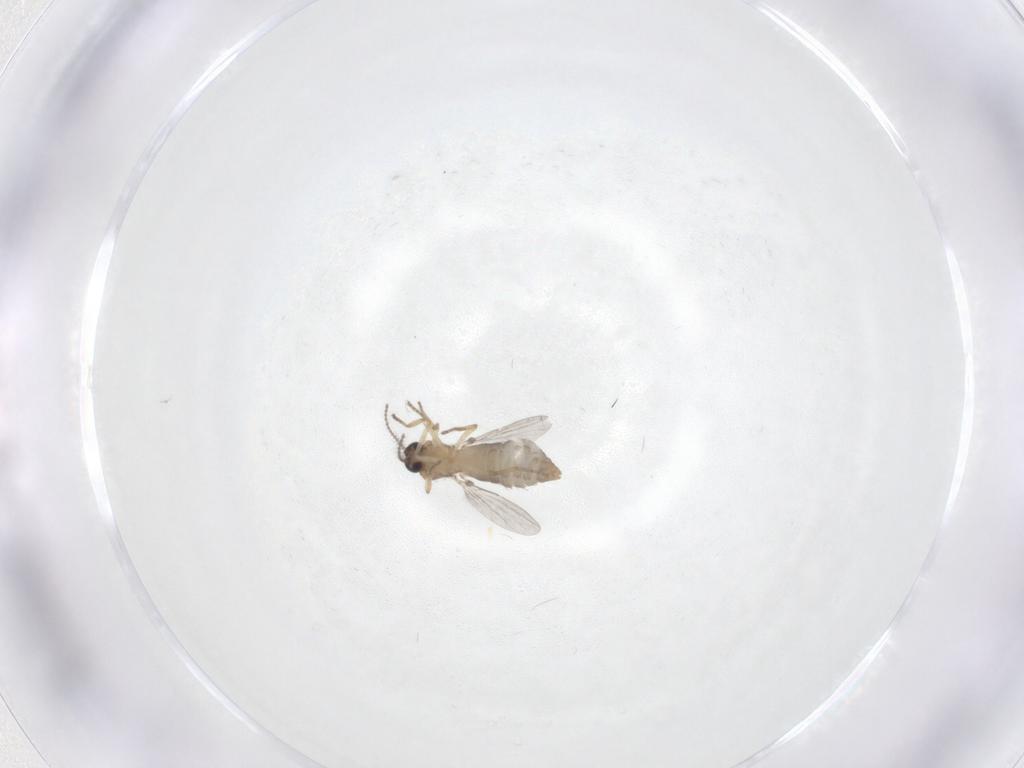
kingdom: Animalia
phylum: Arthropoda
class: Insecta
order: Diptera
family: Ceratopogonidae
